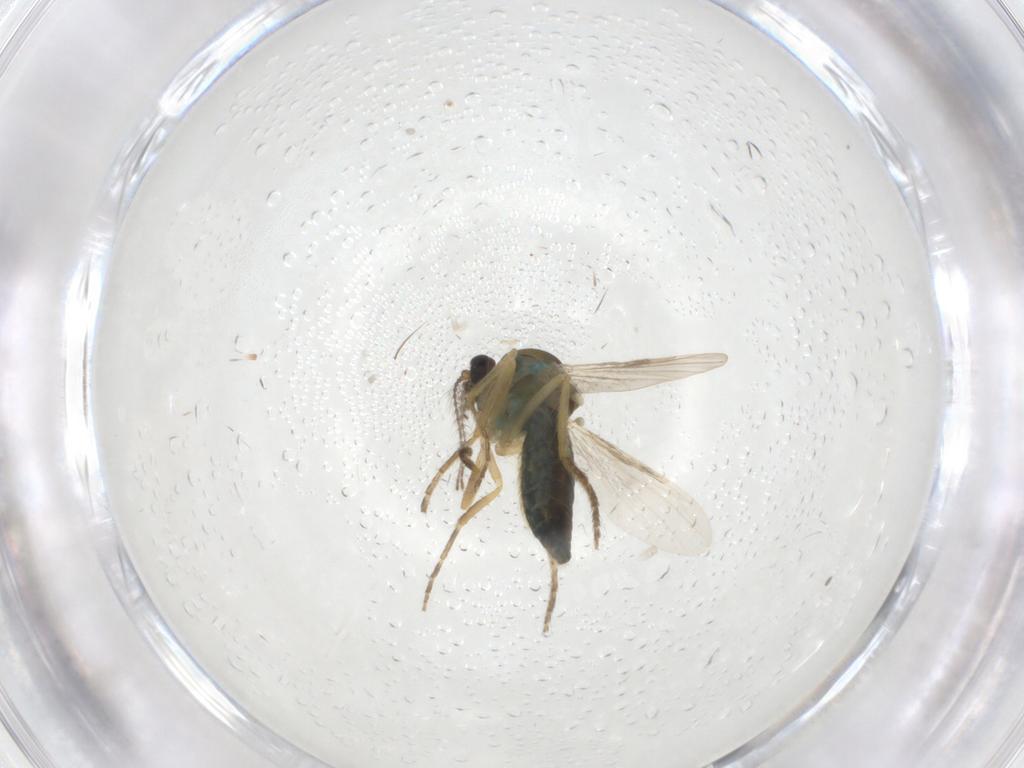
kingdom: Animalia
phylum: Arthropoda
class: Insecta
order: Diptera
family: Ceratopogonidae
